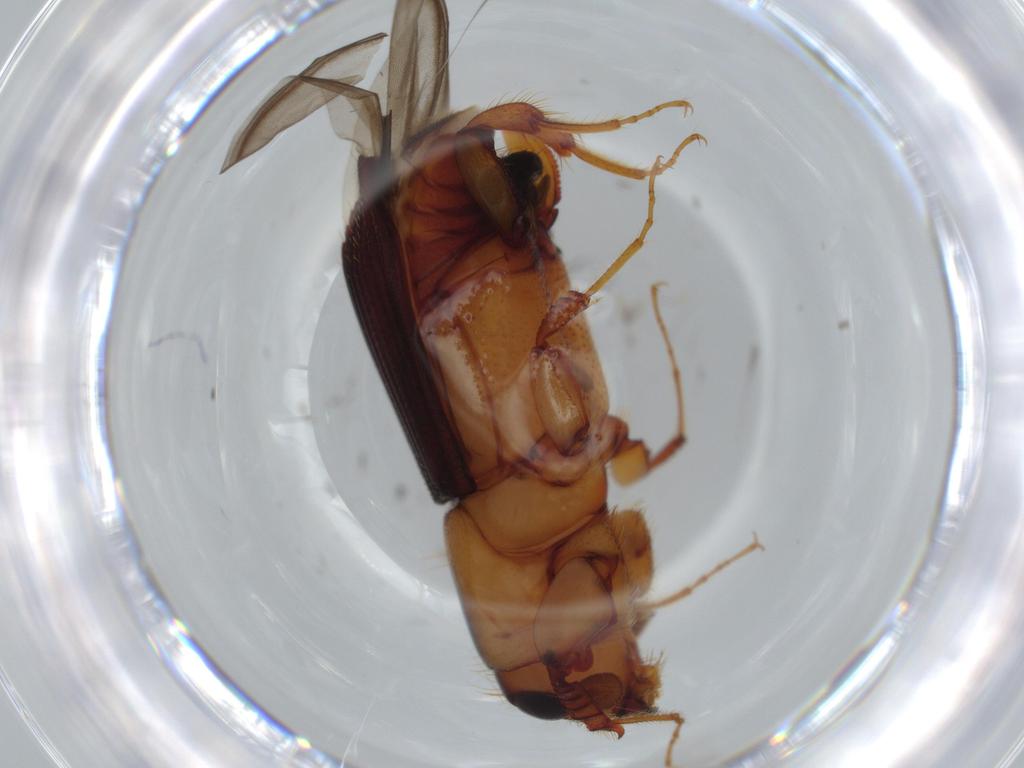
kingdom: Animalia
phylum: Arthropoda
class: Insecta
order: Coleoptera
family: Curculionidae
